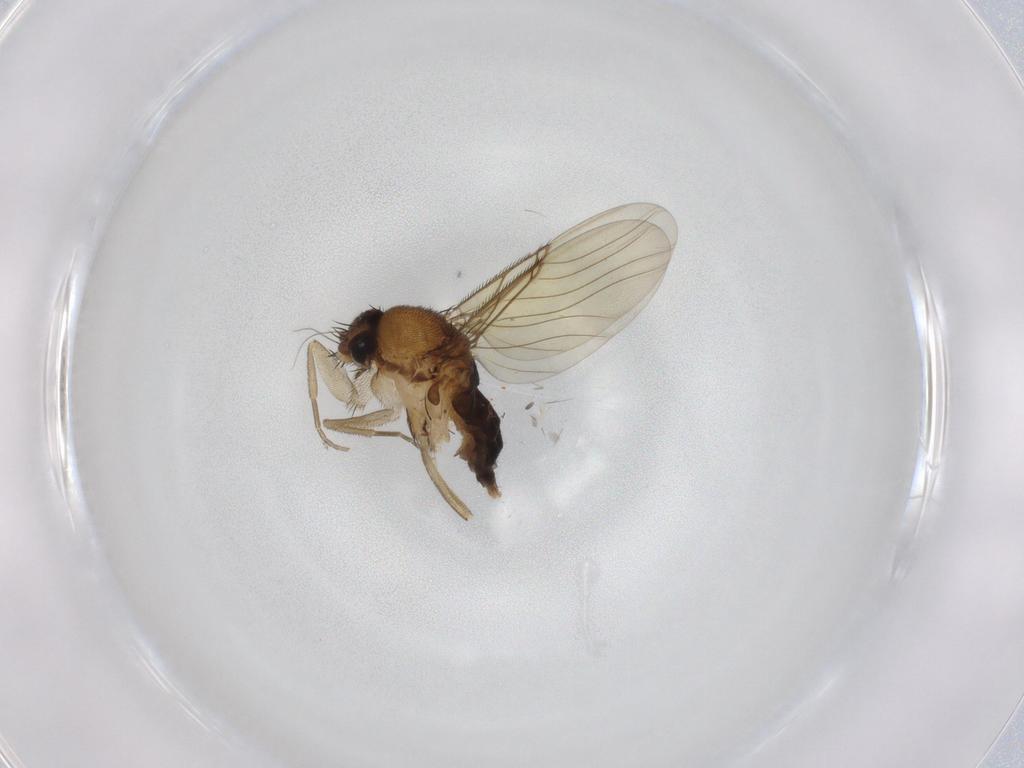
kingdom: Animalia
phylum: Arthropoda
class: Insecta
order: Diptera
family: Phoridae
